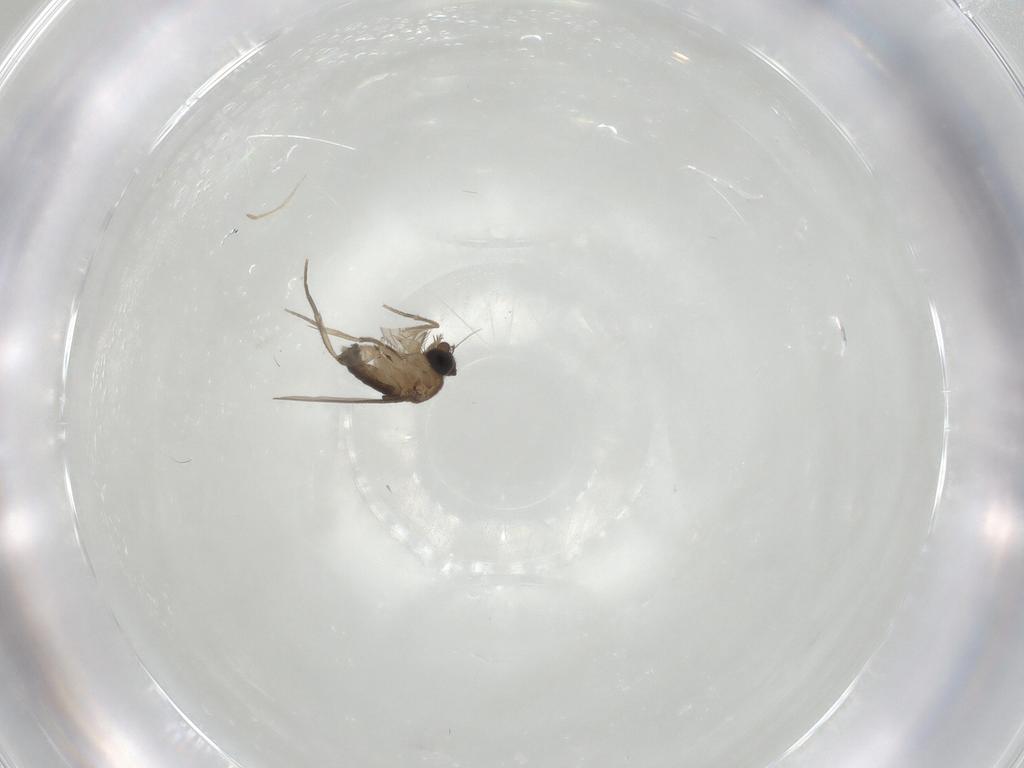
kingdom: Animalia
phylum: Arthropoda
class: Insecta
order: Diptera
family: Phoridae
